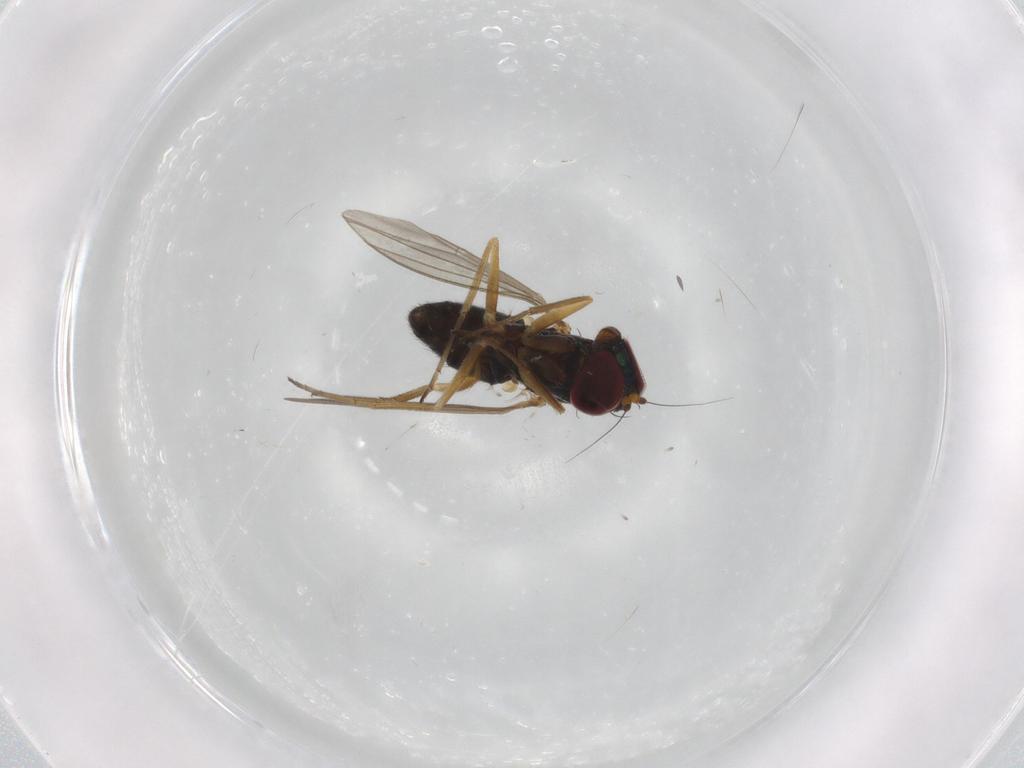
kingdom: Animalia
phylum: Arthropoda
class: Insecta
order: Diptera
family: Dolichopodidae
